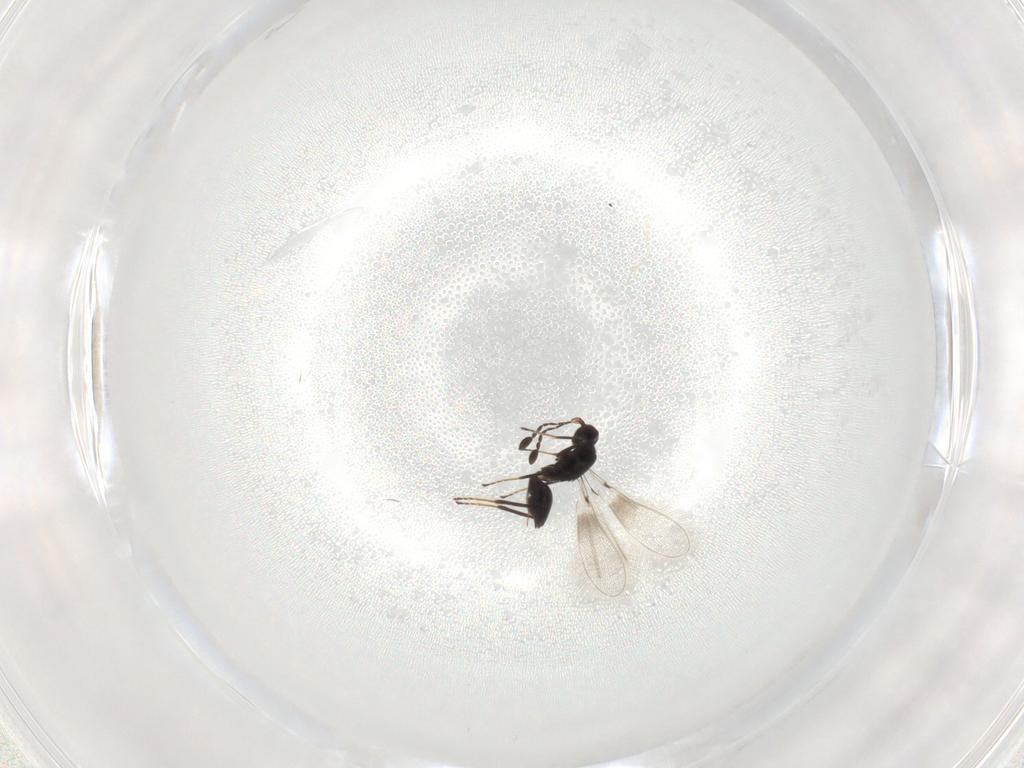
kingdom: Animalia
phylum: Arthropoda
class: Insecta
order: Hymenoptera
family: Mymaridae
